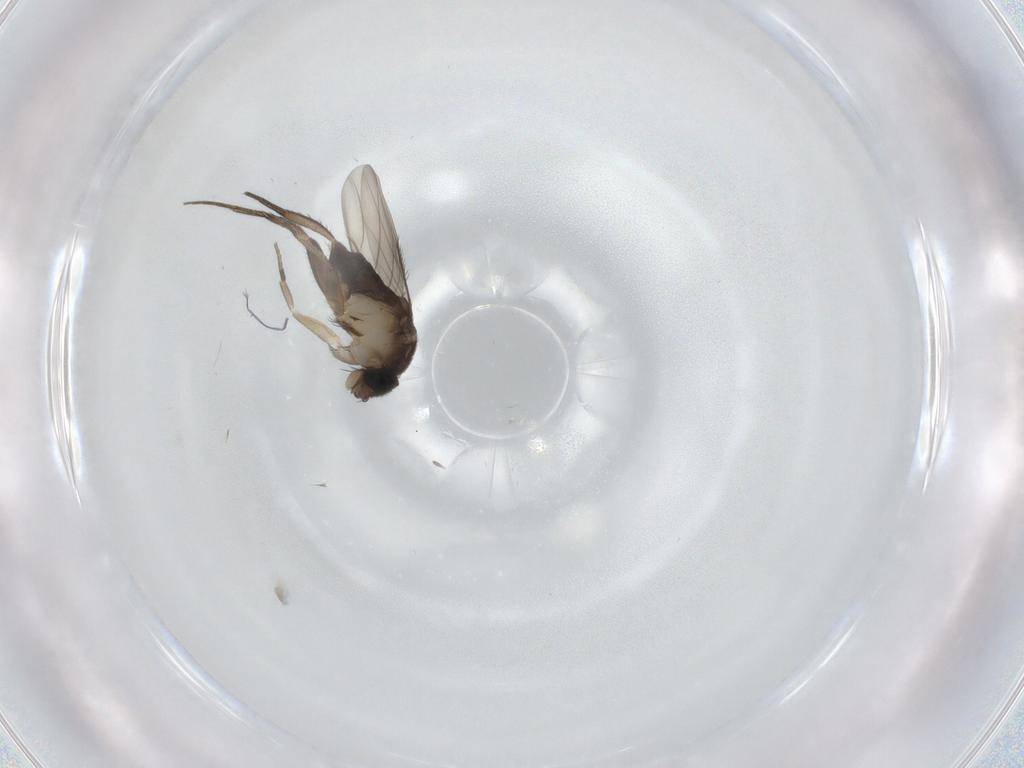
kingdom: Animalia
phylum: Arthropoda
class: Insecta
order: Diptera
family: Phoridae
